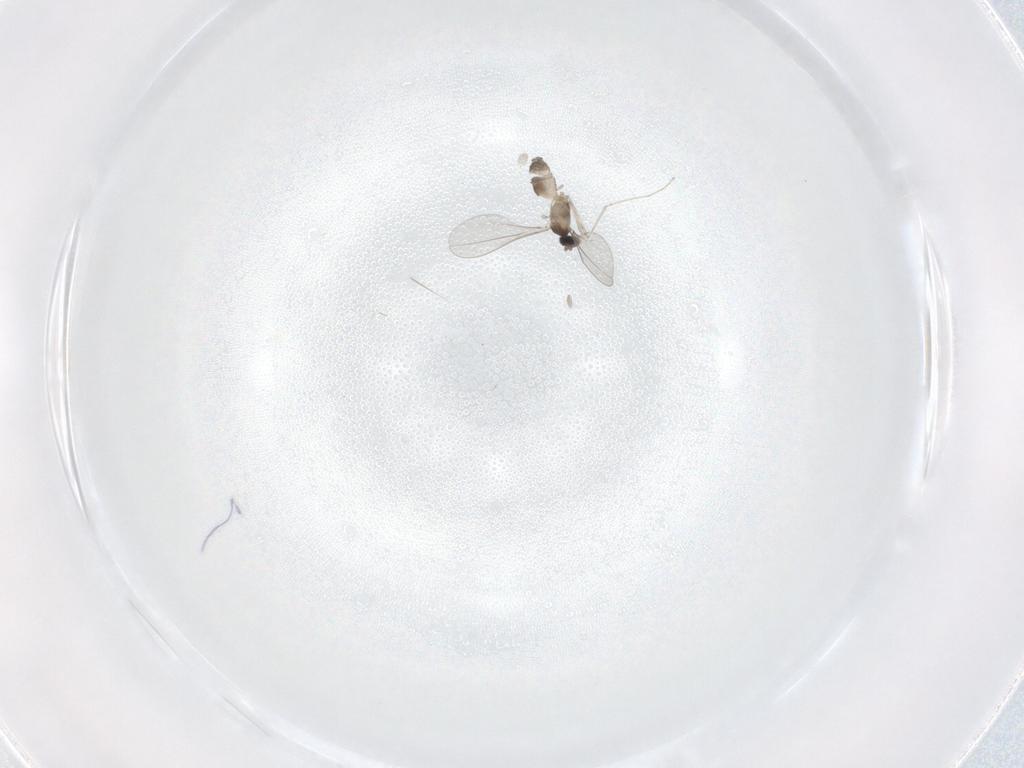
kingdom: Animalia
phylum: Arthropoda
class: Insecta
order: Diptera
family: Cecidomyiidae
